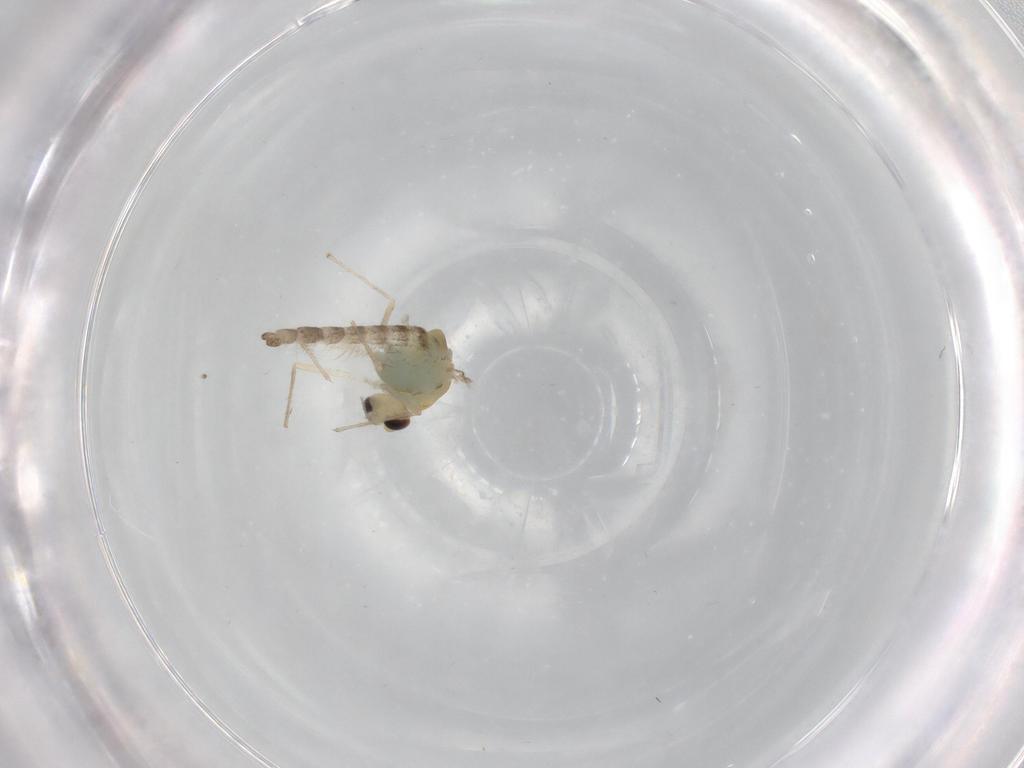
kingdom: Animalia
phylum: Arthropoda
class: Insecta
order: Diptera
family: Chironomidae
